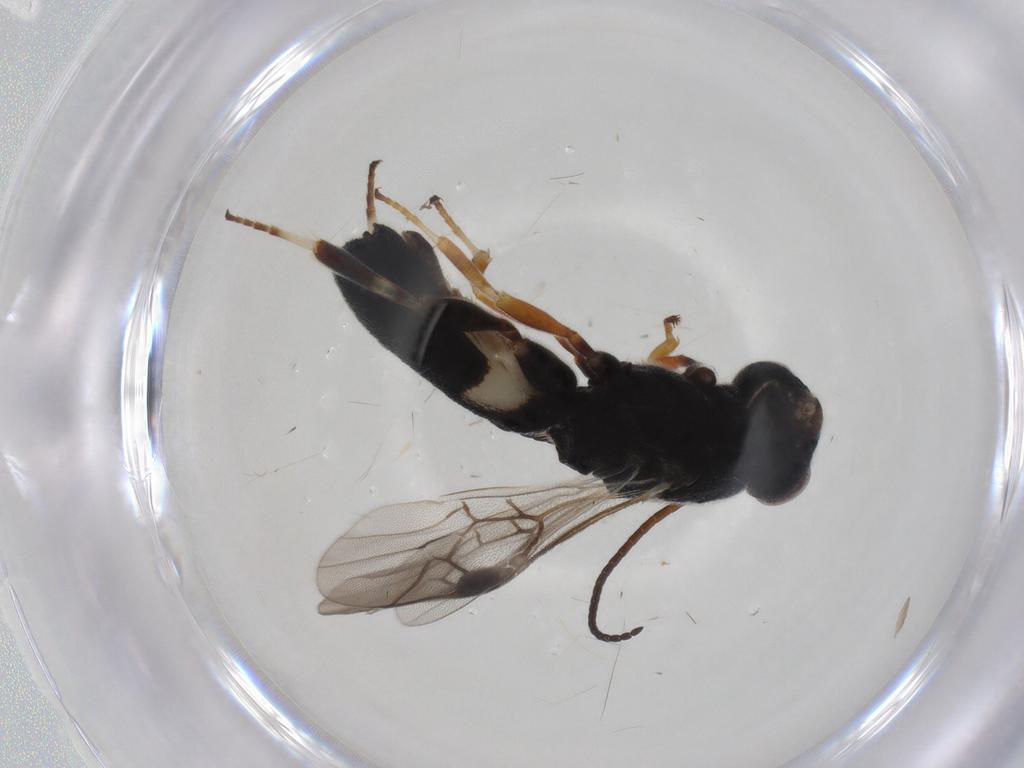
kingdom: Animalia
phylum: Arthropoda
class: Insecta
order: Hymenoptera
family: Braconidae
